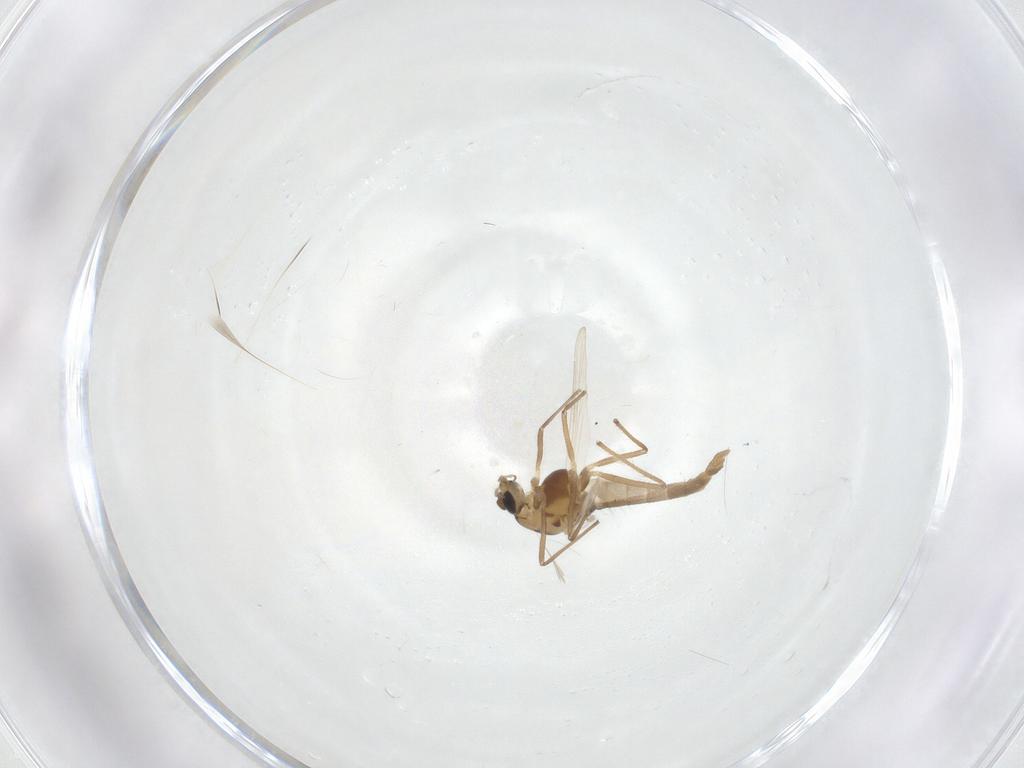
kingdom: Animalia
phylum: Arthropoda
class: Insecta
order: Diptera
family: Chironomidae
